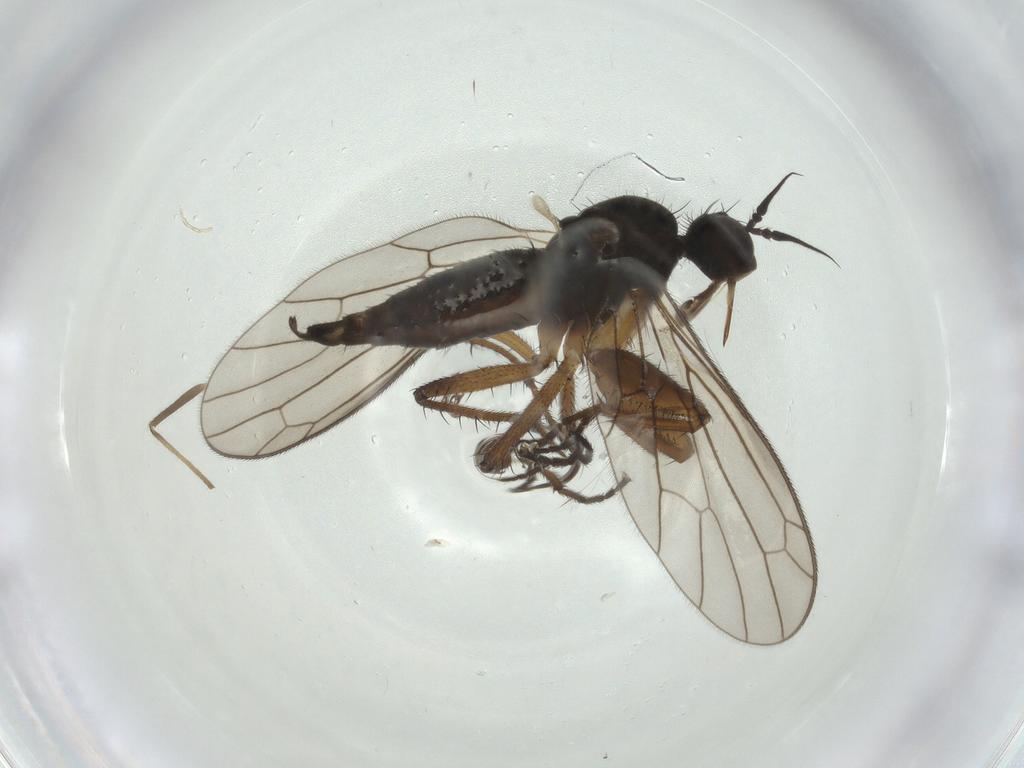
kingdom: Animalia
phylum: Arthropoda
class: Insecta
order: Diptera
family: Empididae
